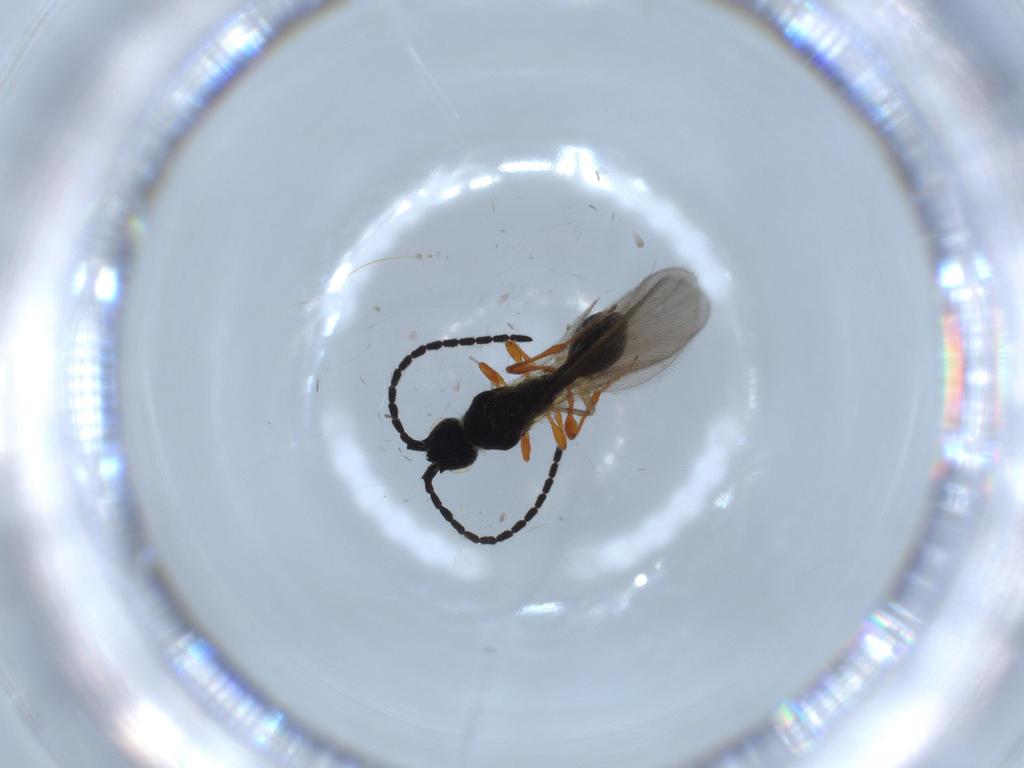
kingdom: Animalia
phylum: Arthropoda
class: Insecta
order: Hymenoptera
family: Diapriidae
